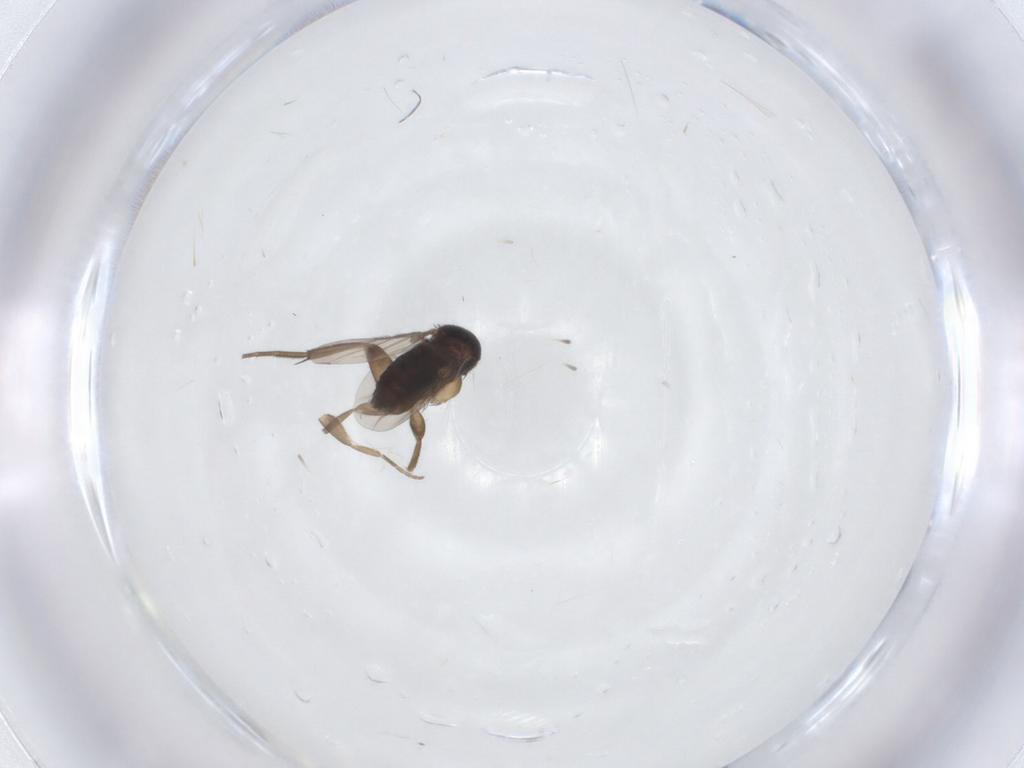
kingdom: Animalia
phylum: Arthropoda
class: Insecta
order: Diptera
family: Phoridae
